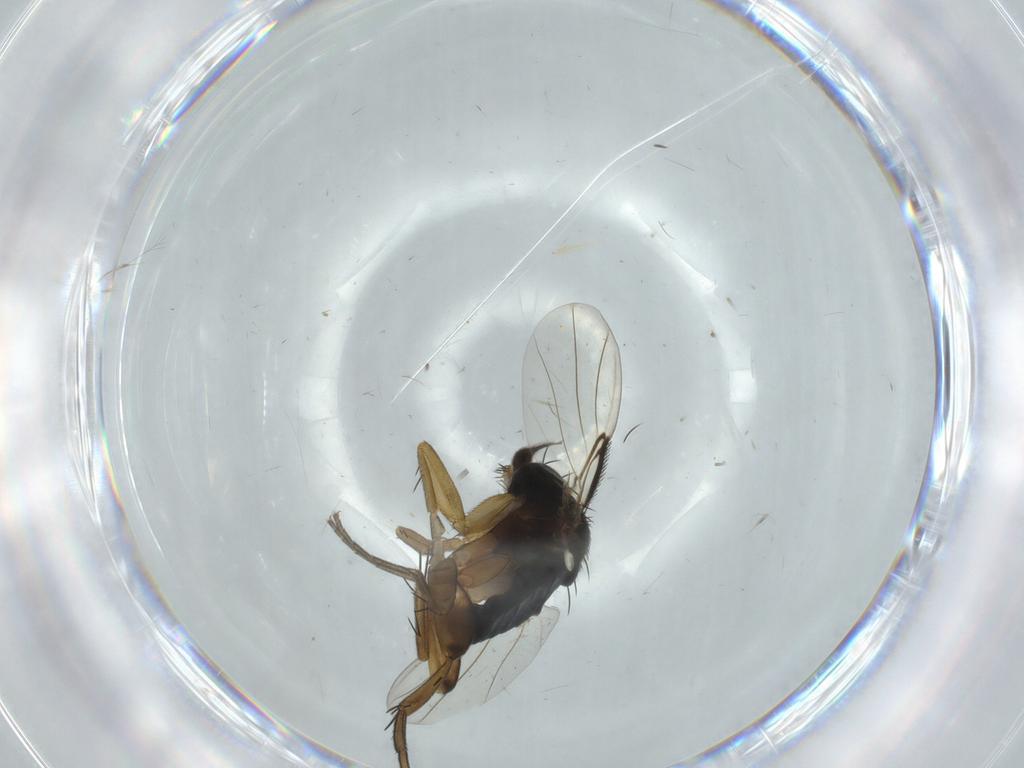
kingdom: Animalia
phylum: Arthropoda
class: Insecta
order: Diptera
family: Phoridae
